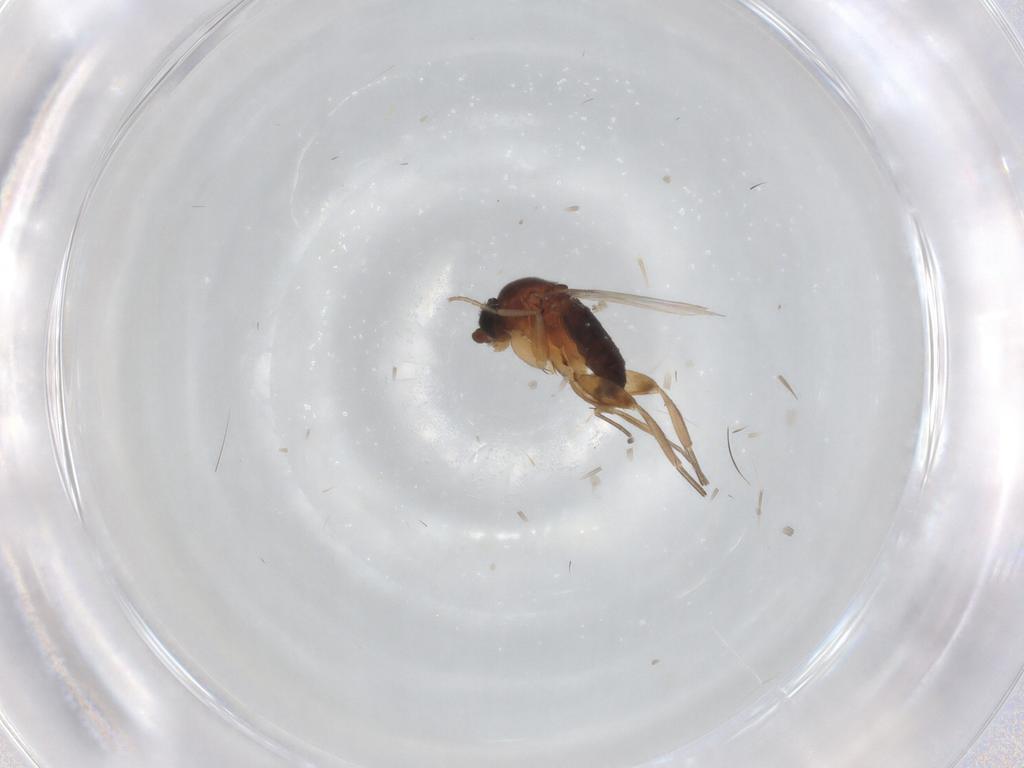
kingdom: Animalia
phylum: Arthropoda
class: Insecta
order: Diptera
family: Phoridae
